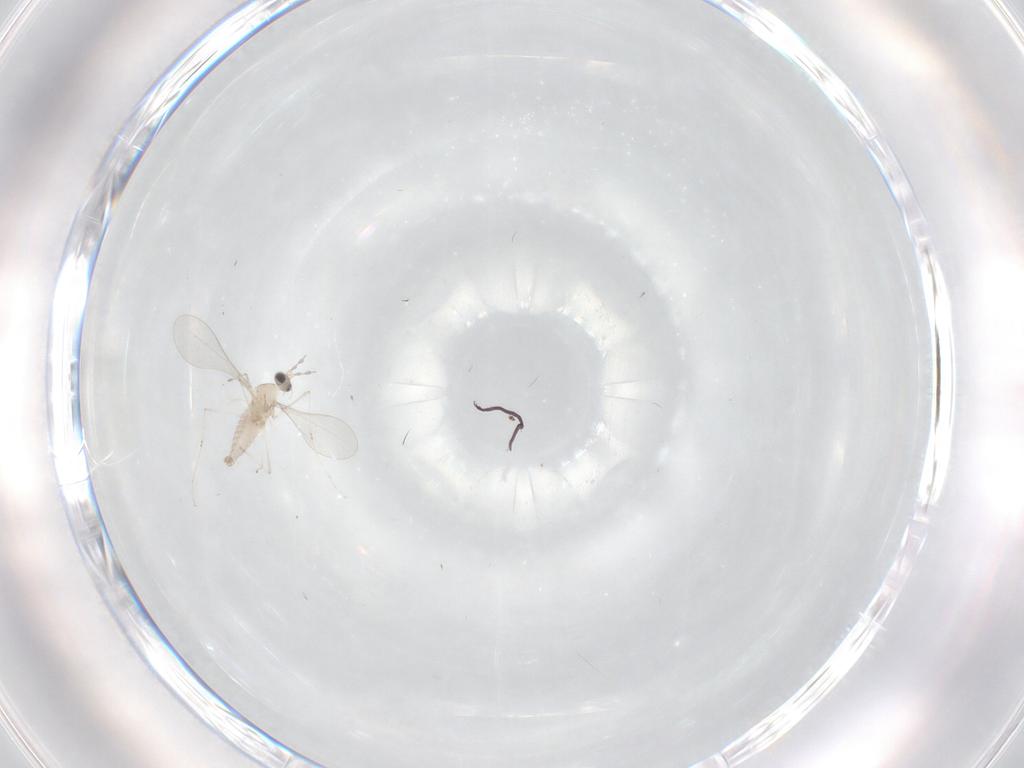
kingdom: Animalia
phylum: Arthropoda
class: Insecta
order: Diptera
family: Cecidomyiidae
